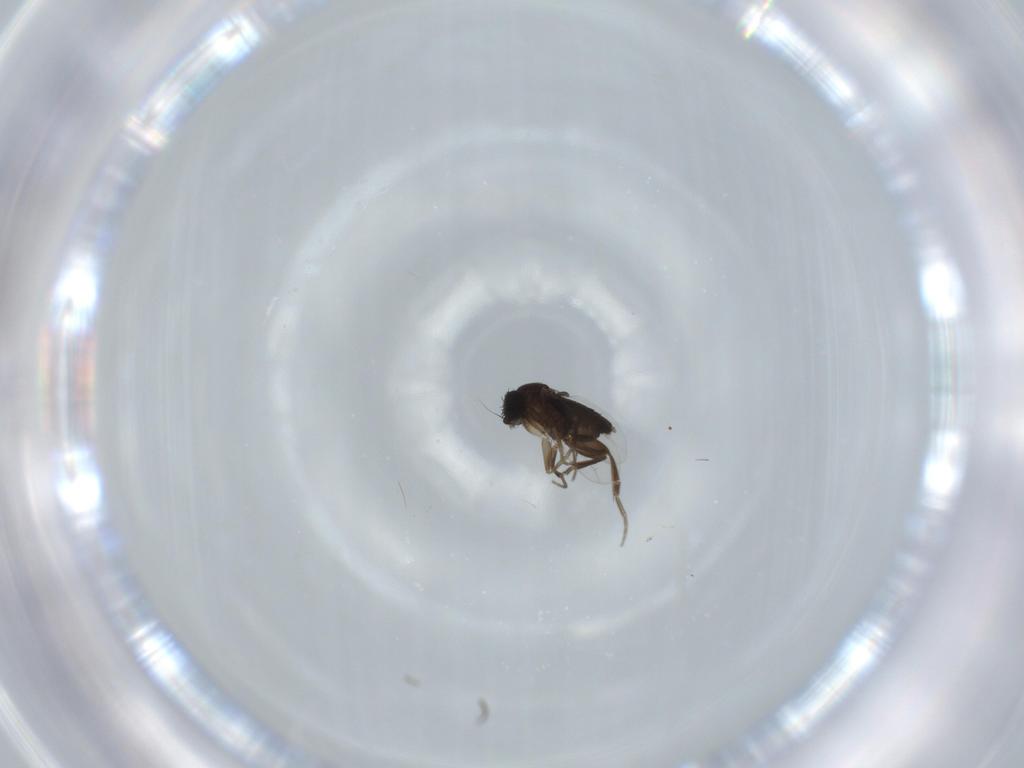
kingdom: Animalia
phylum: Arthropoda
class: Insecta
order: Diptera
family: Phoridae
